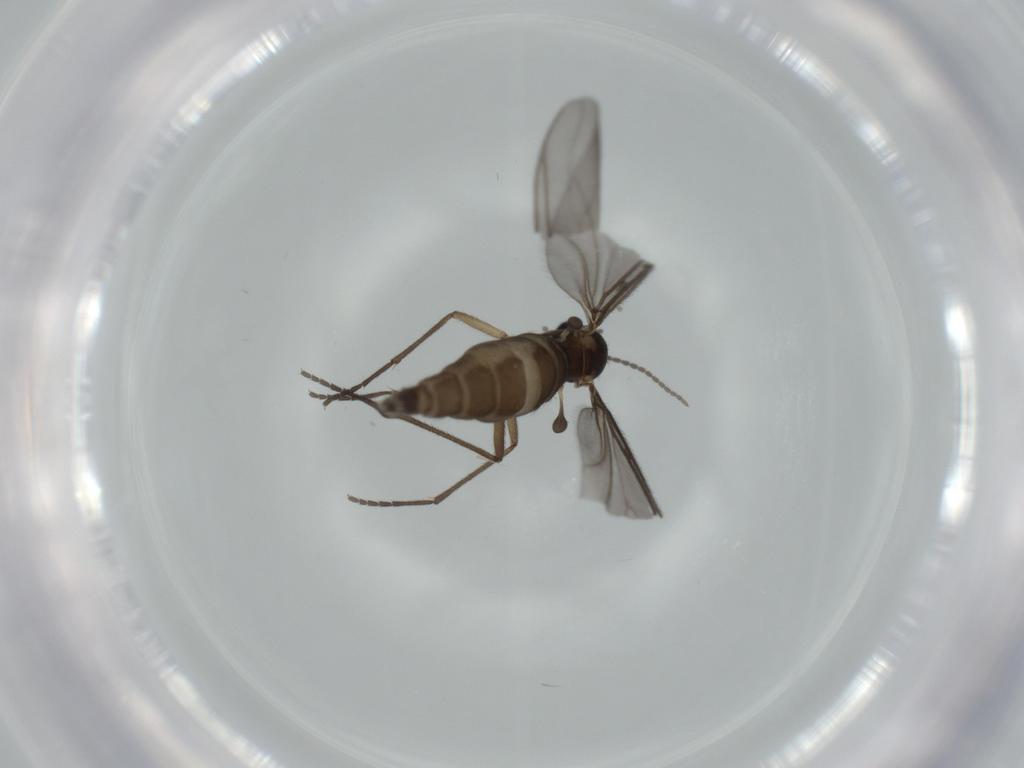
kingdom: Animalia
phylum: Arthropoda
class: Insecta
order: Diptera
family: Sciaridae
